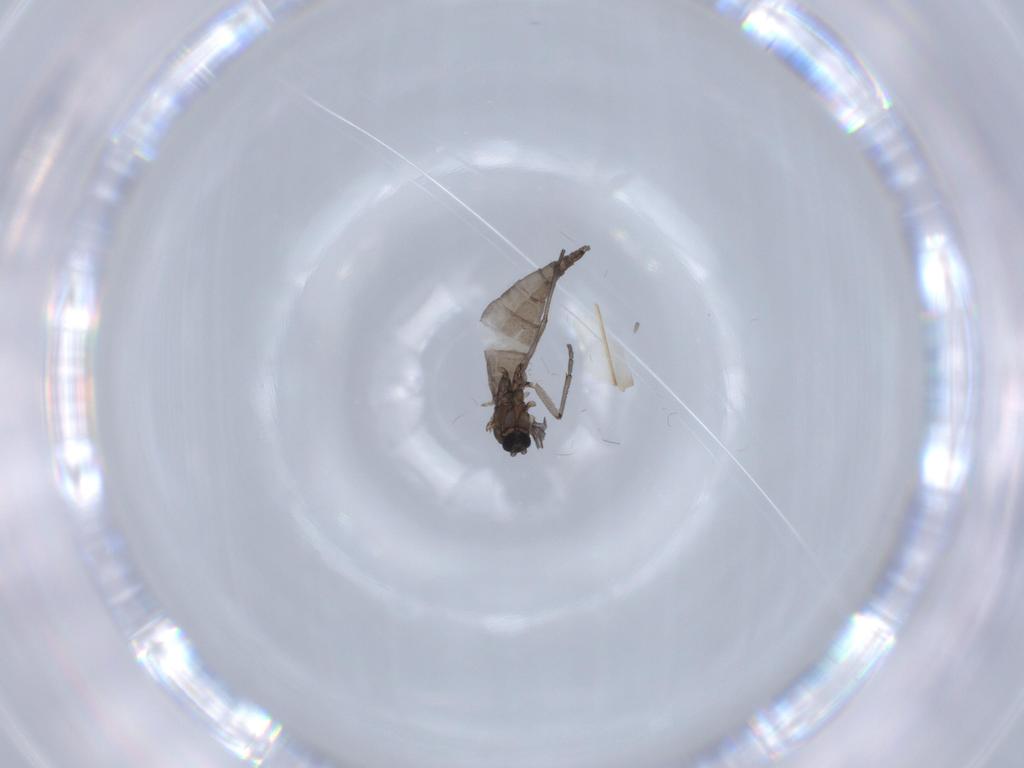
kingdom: Animalia
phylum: Arthropoda
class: Insecta
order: Diptera
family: Sciaridae
